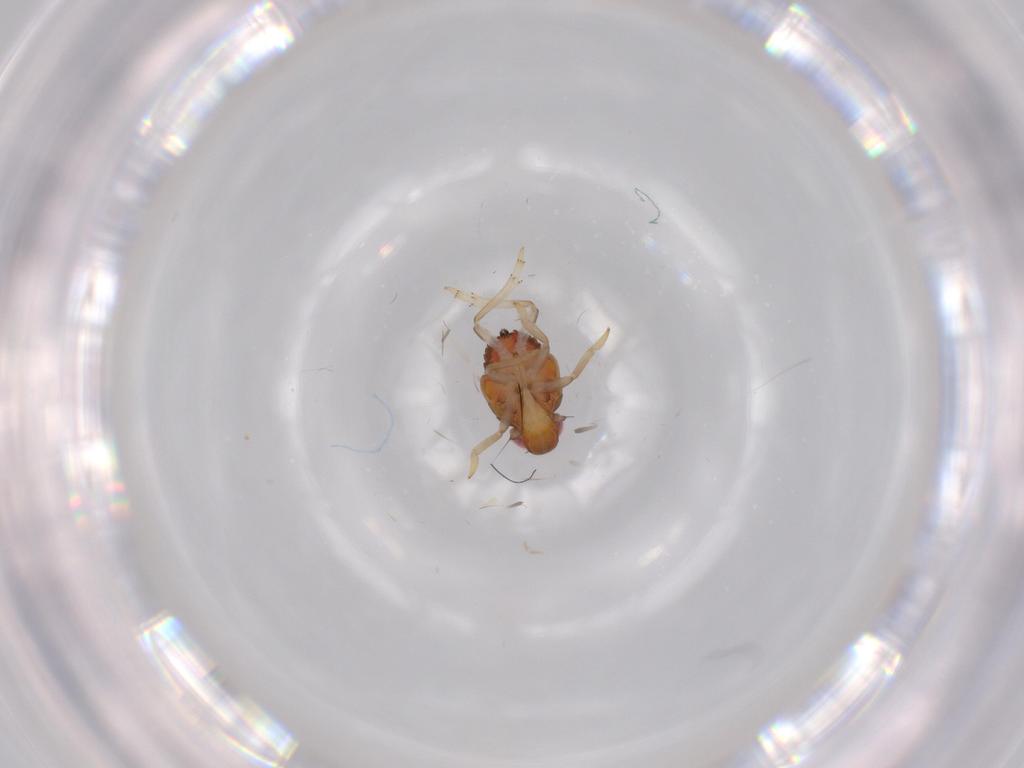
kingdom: Animalia
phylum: Arthropoda
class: Insecta
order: Hemiptera
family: Issidae
